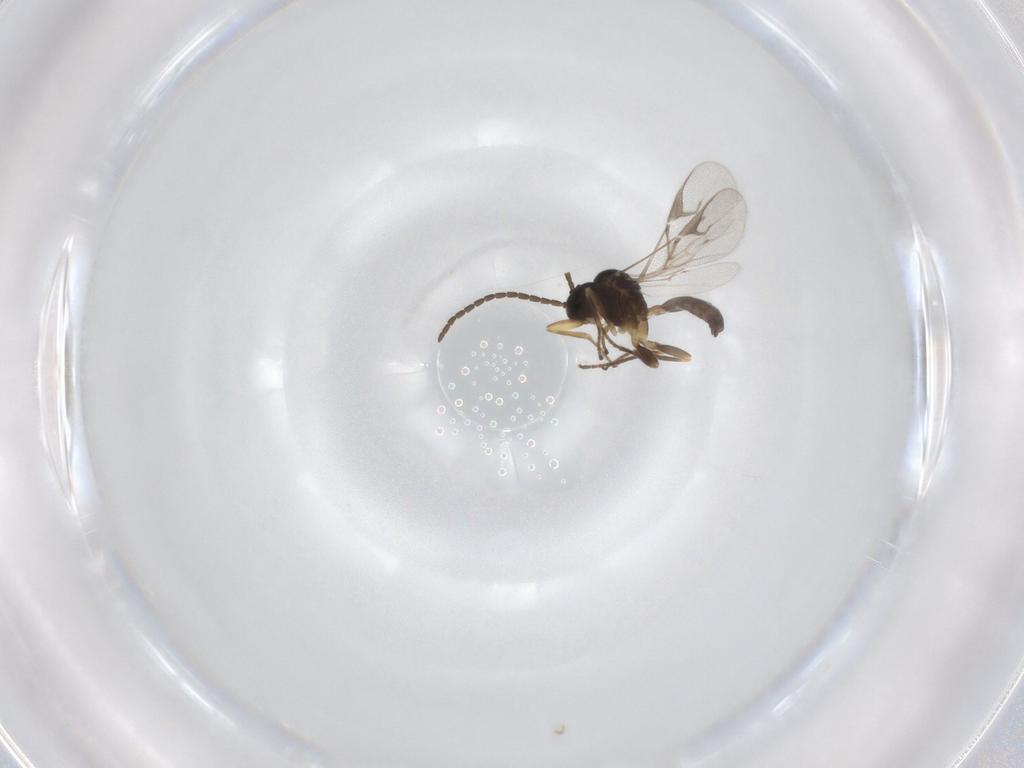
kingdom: Animalia
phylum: Arthropoda
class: Insecta
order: Hymenoptera
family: Braconidae
